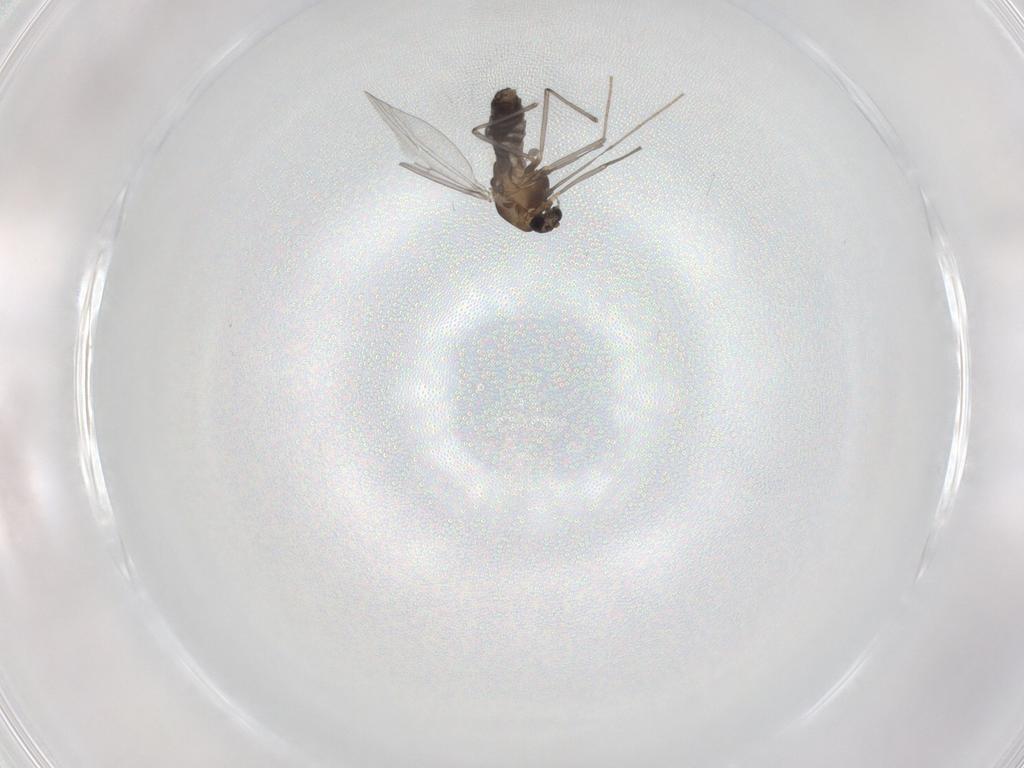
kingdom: Animalia
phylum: Arthropoda
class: Insecta
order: Diptera
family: Chironomidae
